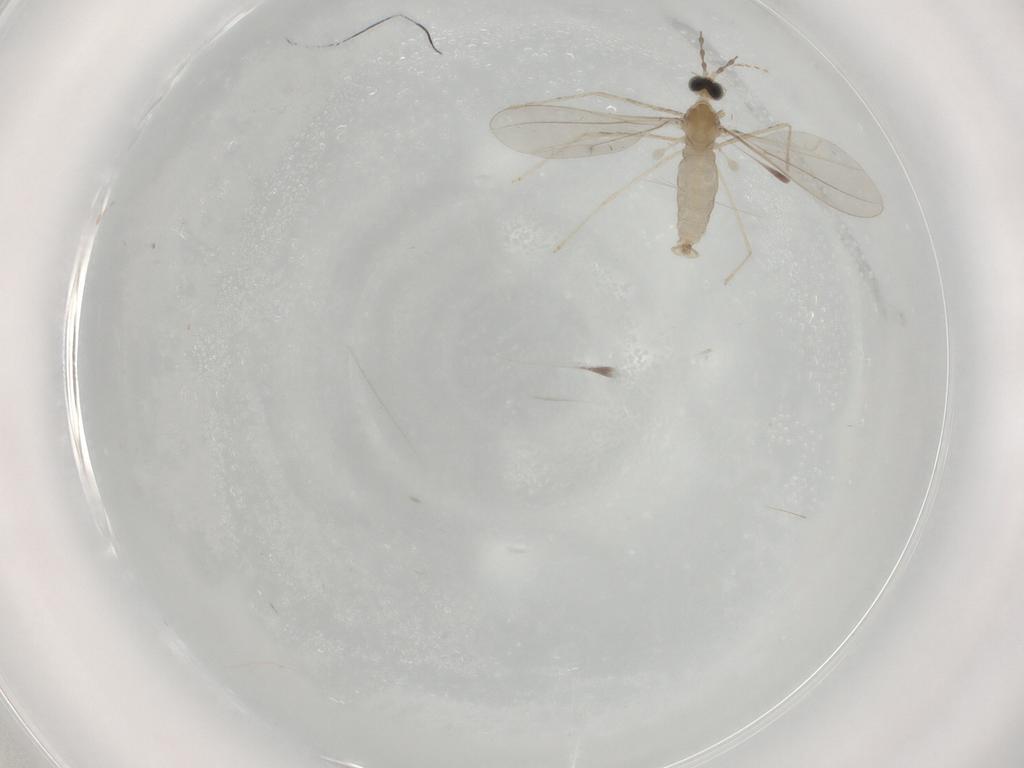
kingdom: Animalia
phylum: Arthropoda
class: Insecta
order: Diptera
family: Cecidomyiidae
